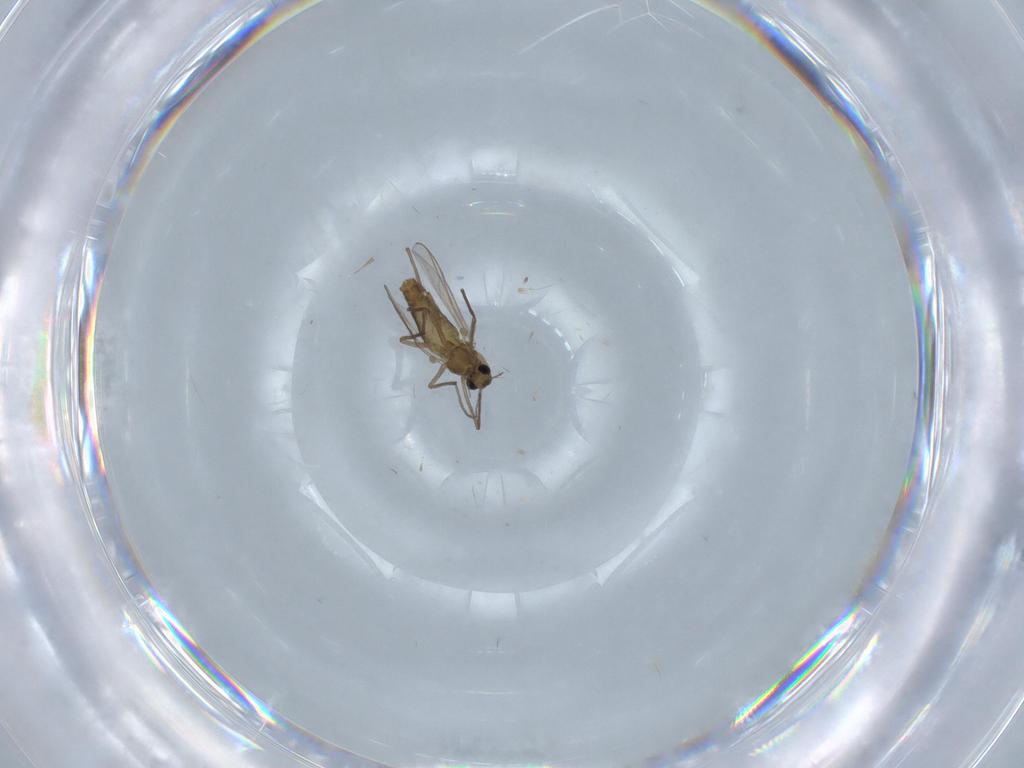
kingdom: Animalia
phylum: Arthropoda
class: Insecta
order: Diptera
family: Chironomidae
